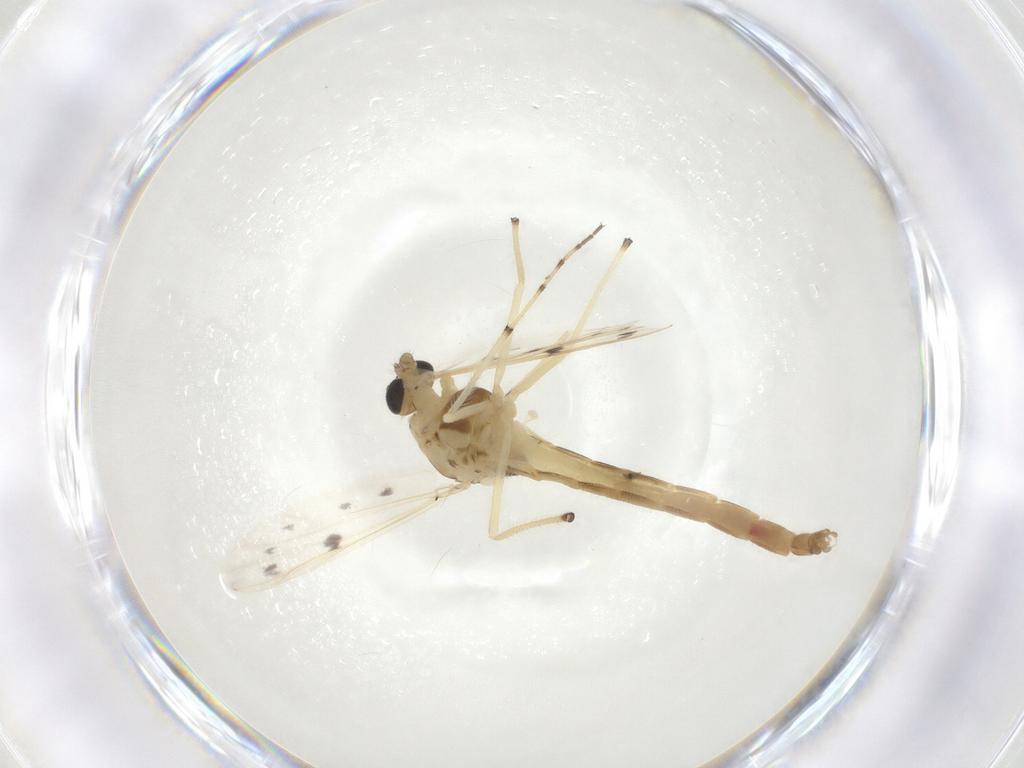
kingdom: Animalia
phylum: Arthropoda
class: Insecta
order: Diptera
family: Chironomidae
